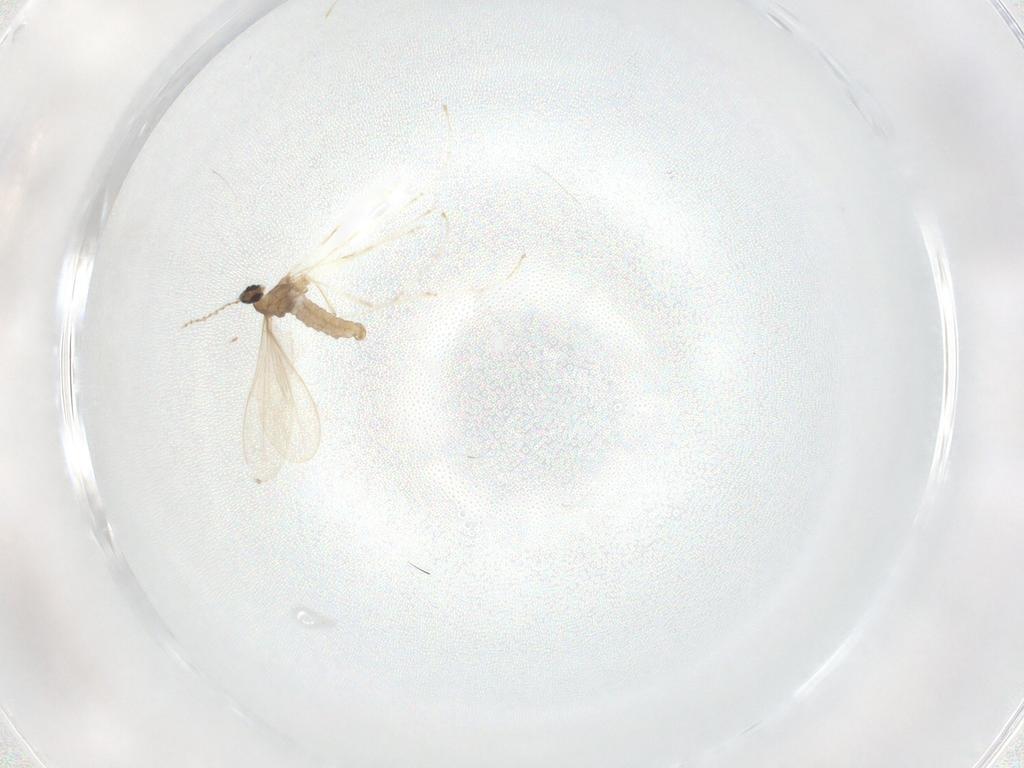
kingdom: Animalia
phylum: Arthropoda
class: Insecta
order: Diptera
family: Cecidomyiidae
